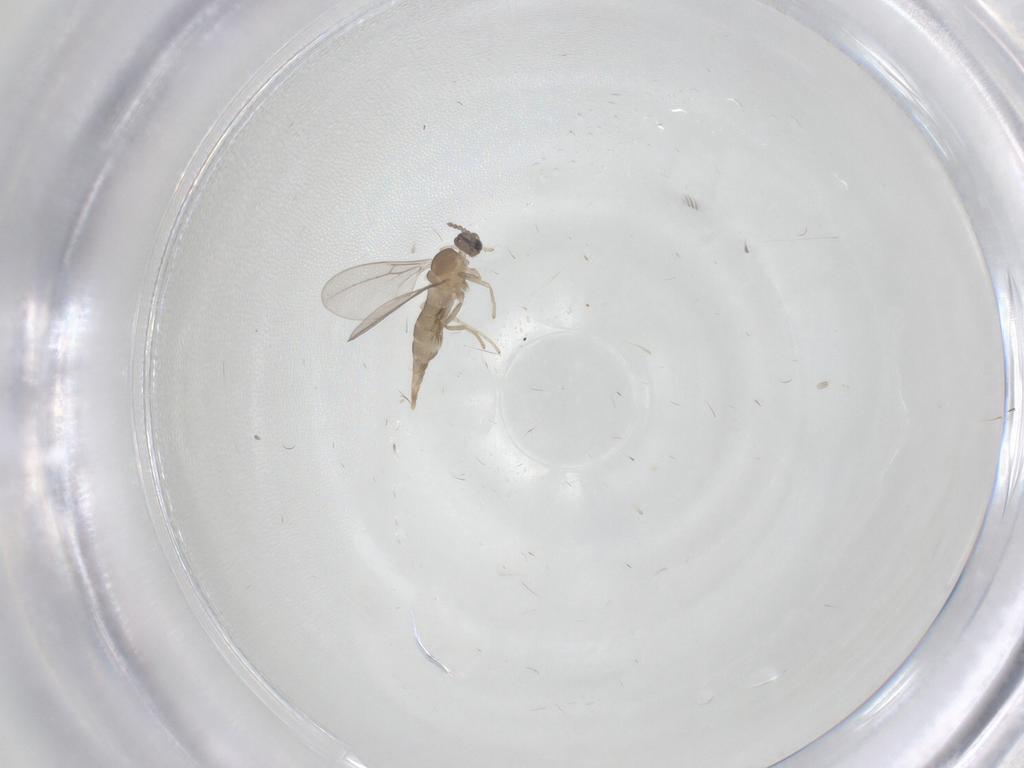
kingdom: Animalia
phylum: Arthropoda
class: Insecta
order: Diptera
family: Cecidomyiidae
